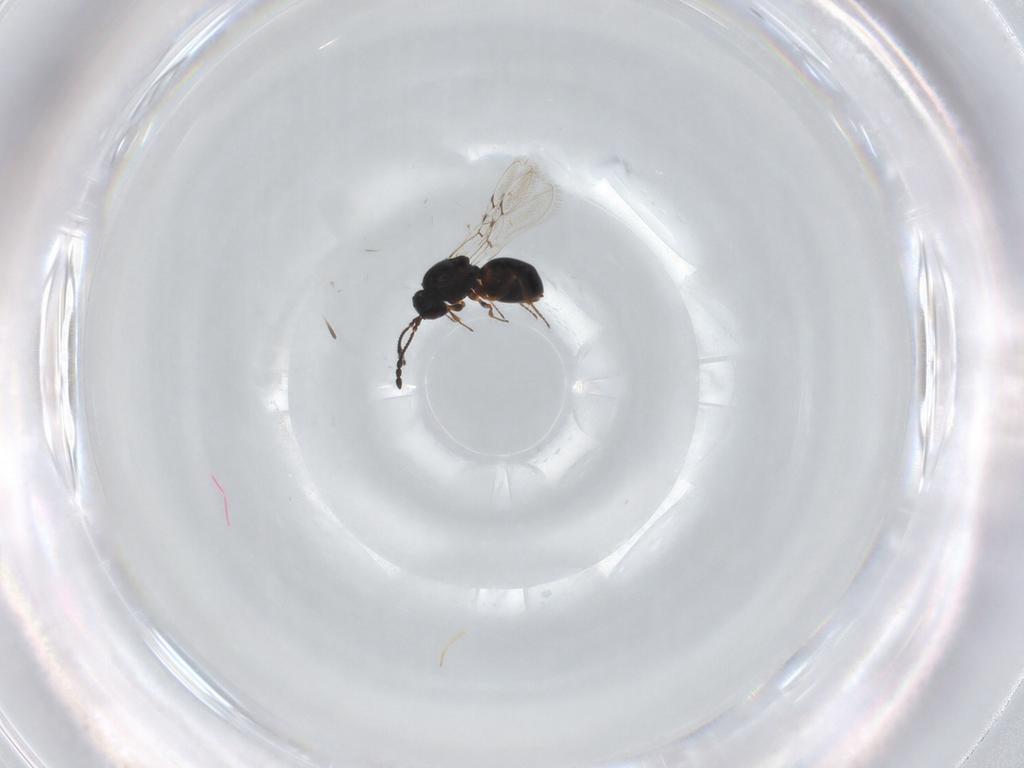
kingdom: Animalia
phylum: Arthropoda
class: Insecta
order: Hymenoptera
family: Figitidae
